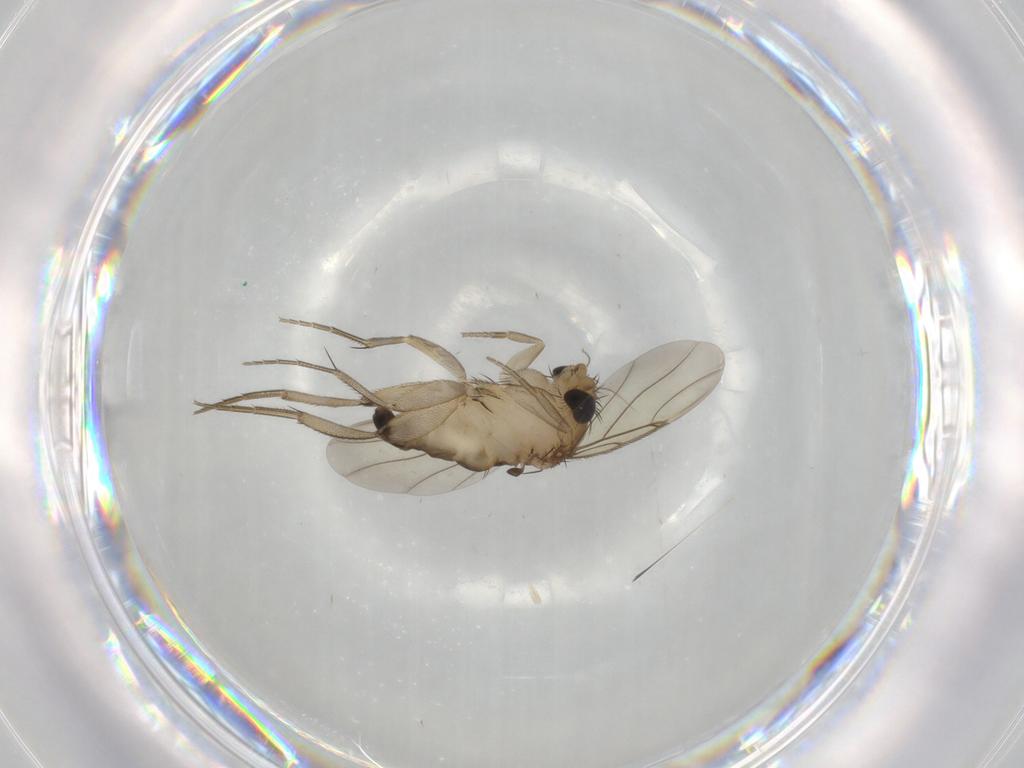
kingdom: Animalia
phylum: Arthropoda
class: Insecta
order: Diptera
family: Phoridae
